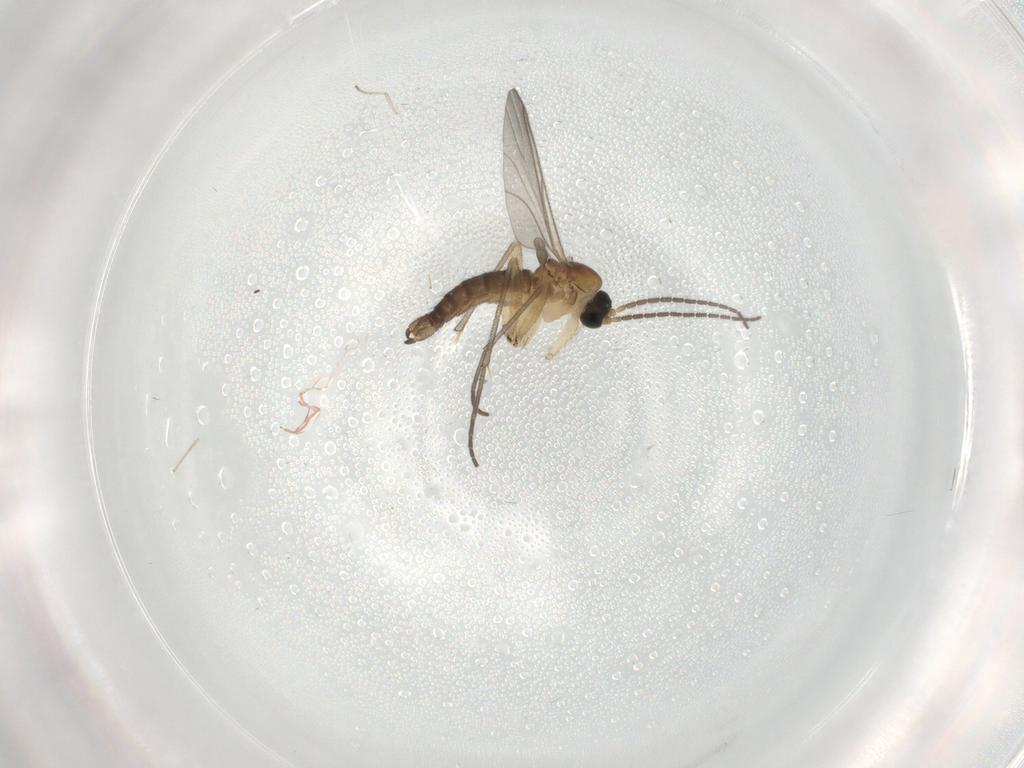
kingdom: Animalia
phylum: Arthropoda
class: Insecta
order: Diptera
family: Sciaridae
